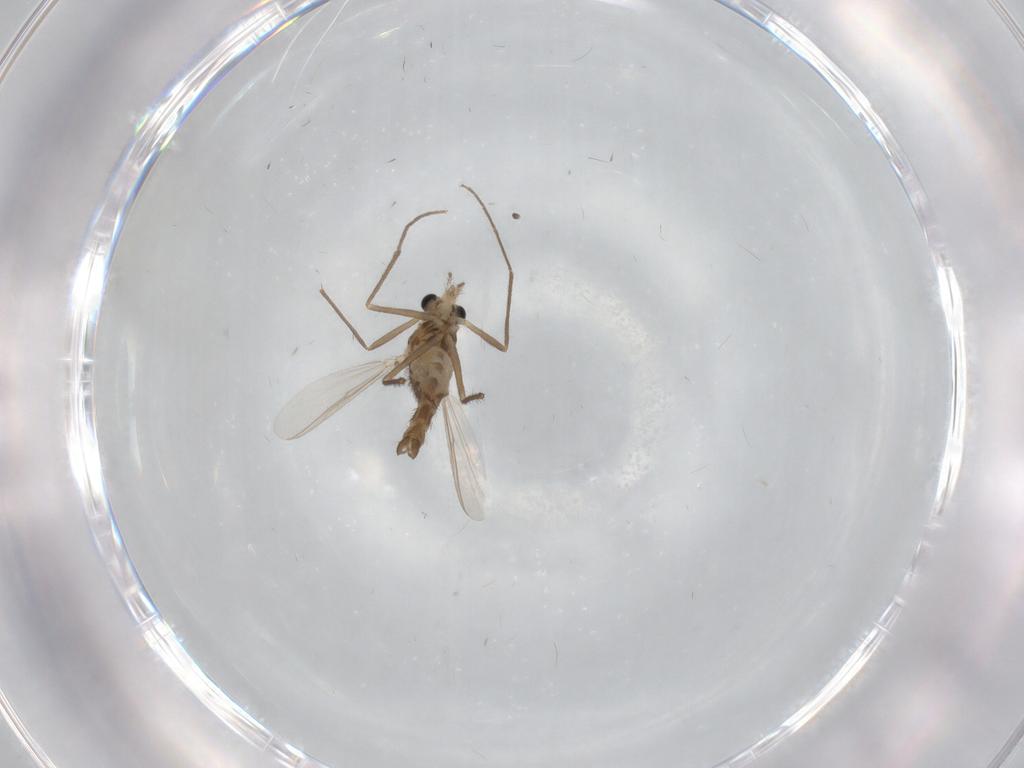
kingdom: Animalia
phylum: Arthropoda
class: Insecta
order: Diptera
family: Chironomidae
